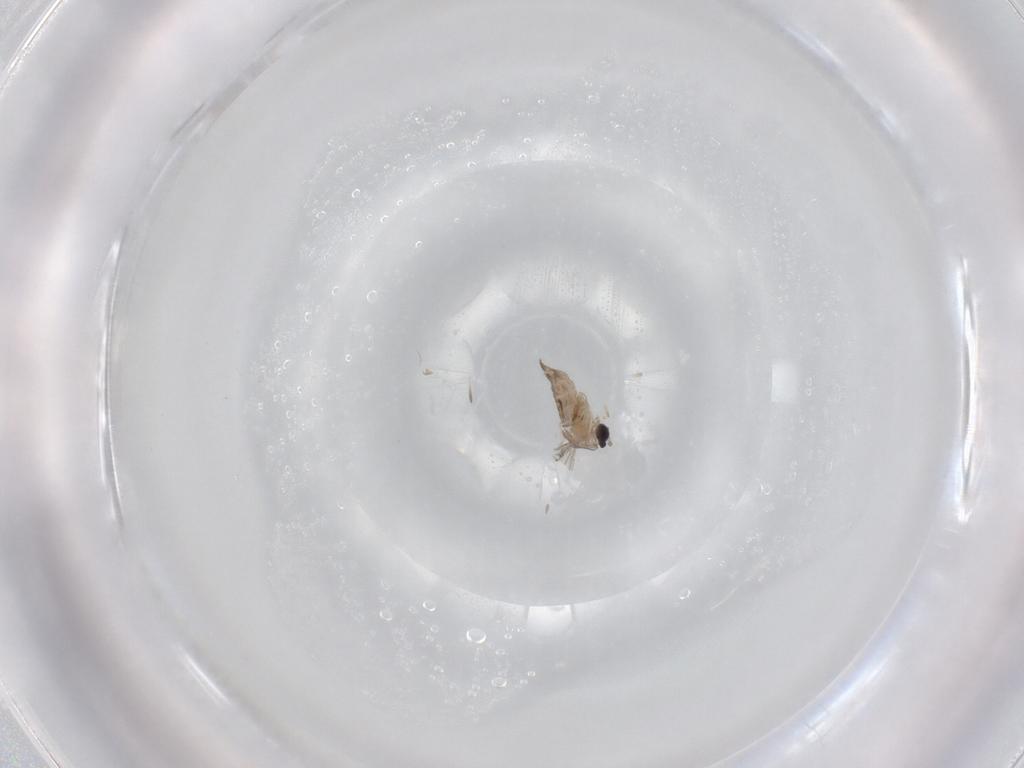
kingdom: Animalia
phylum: Arthropoda
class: Insecta
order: Diptera
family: Cecidomyiidae
